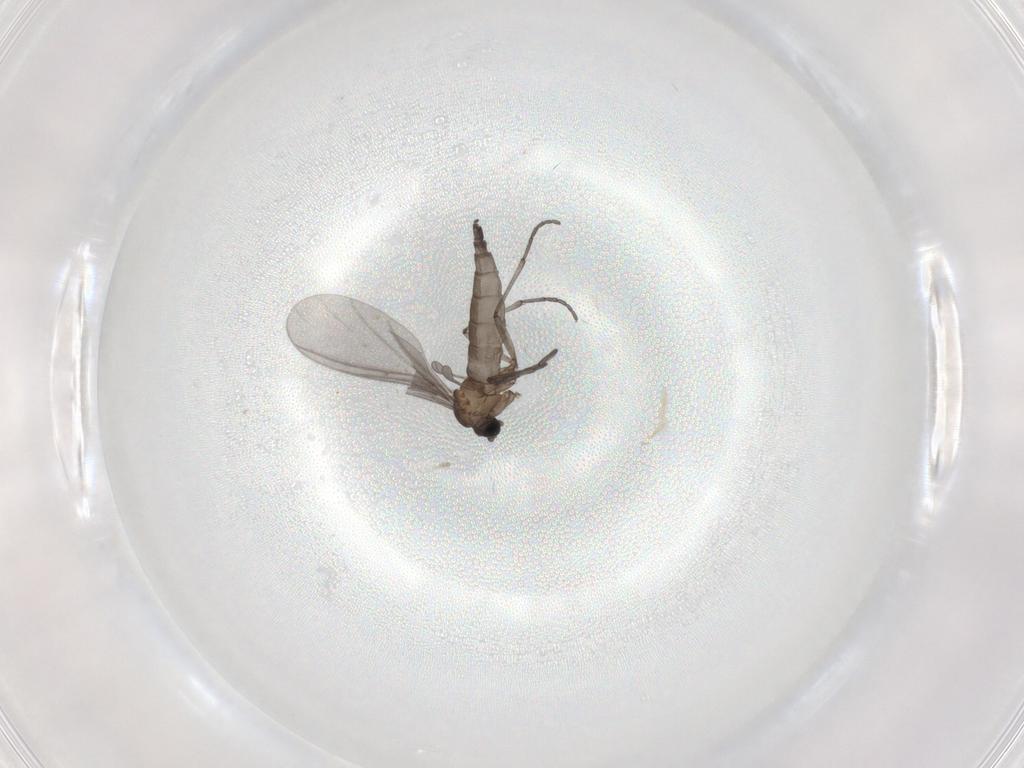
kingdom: Animalia
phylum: Arthropoda
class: Insecta
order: Diptera
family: Sciaridae
